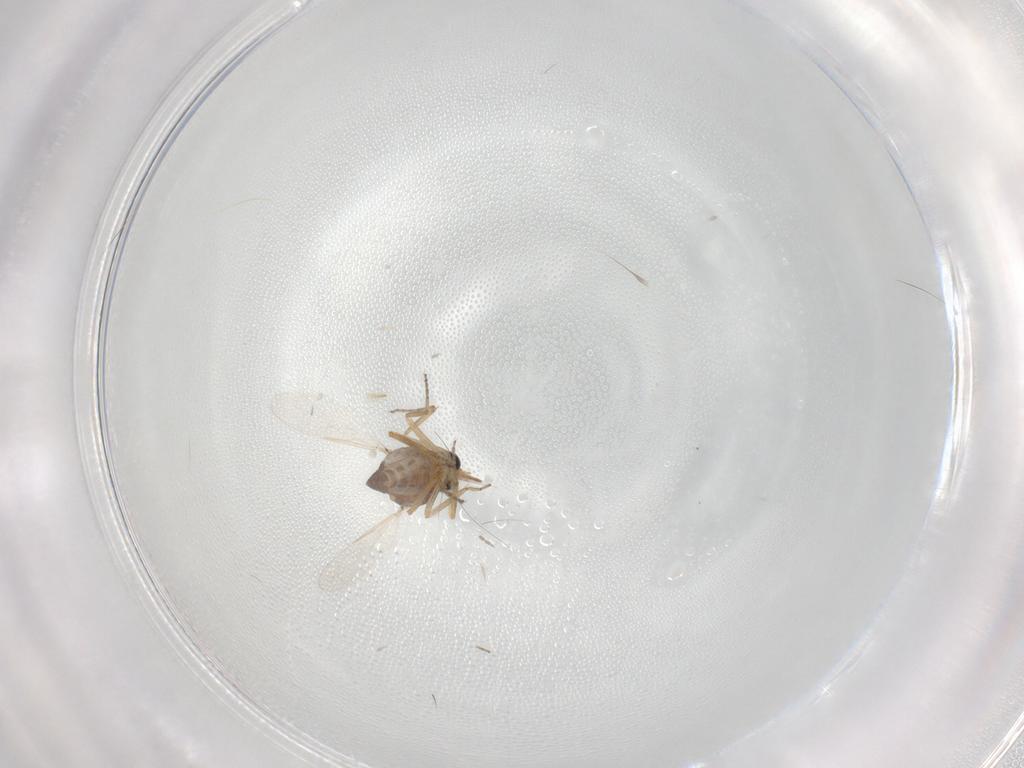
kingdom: Animalia
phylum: Arthropoda
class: Insecta
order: Diptera
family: Ceratopogonidae
